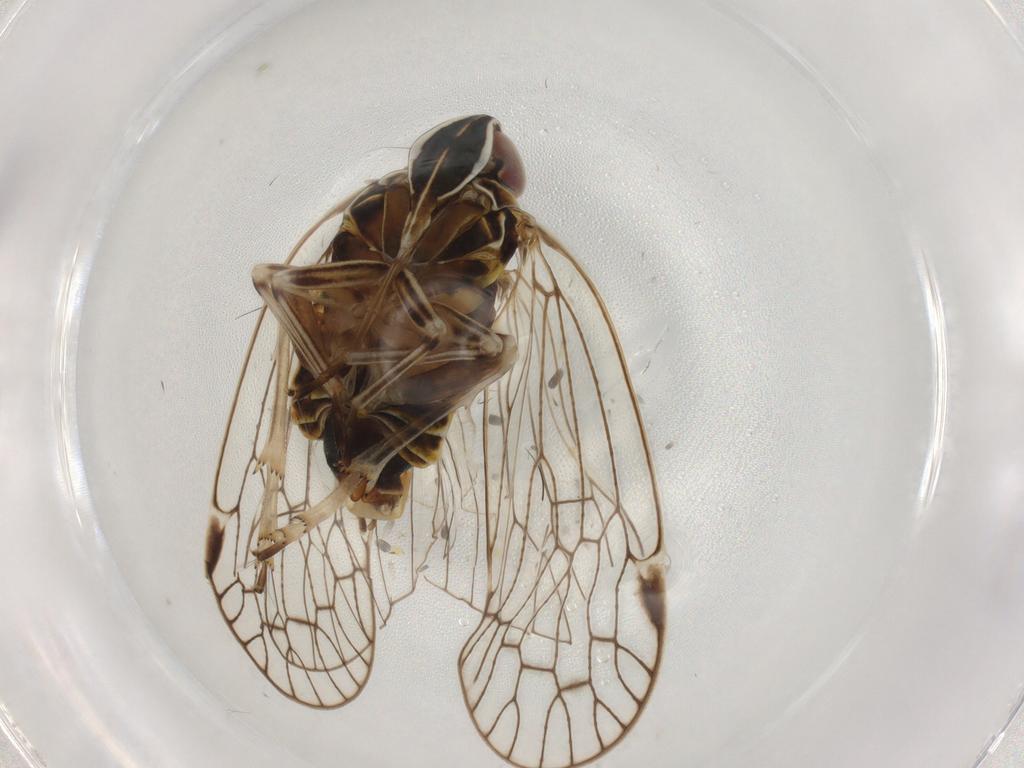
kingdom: Animalia
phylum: Arthropoda
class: Insecta
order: Hemiptera
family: Cixiidae
